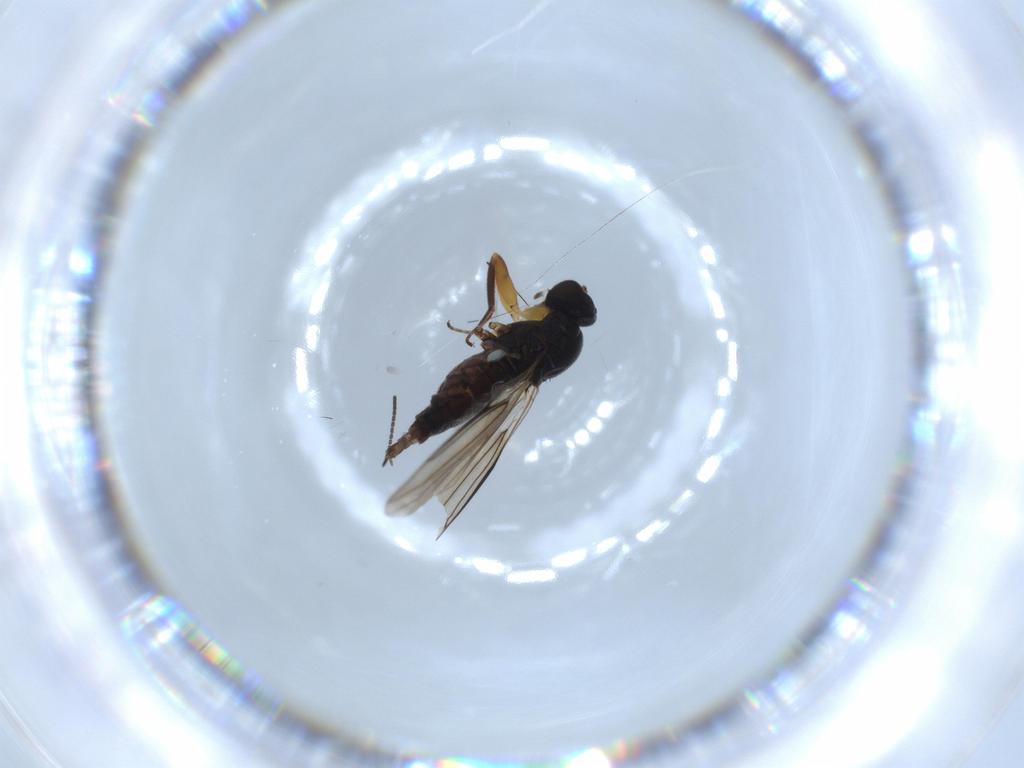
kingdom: Animalia
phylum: Arthropoda
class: Insecta
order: Diptera
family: Hybotidae
